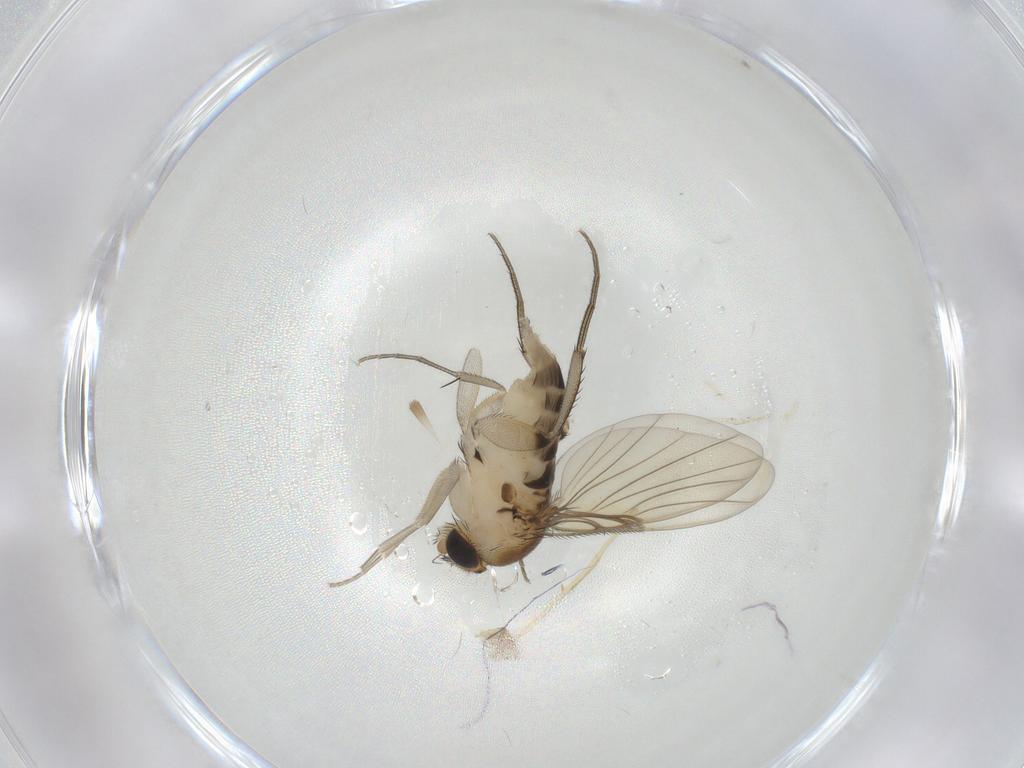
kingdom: Animalia
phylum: Arthropoda
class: Insecta
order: Diptera
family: Phoridae
